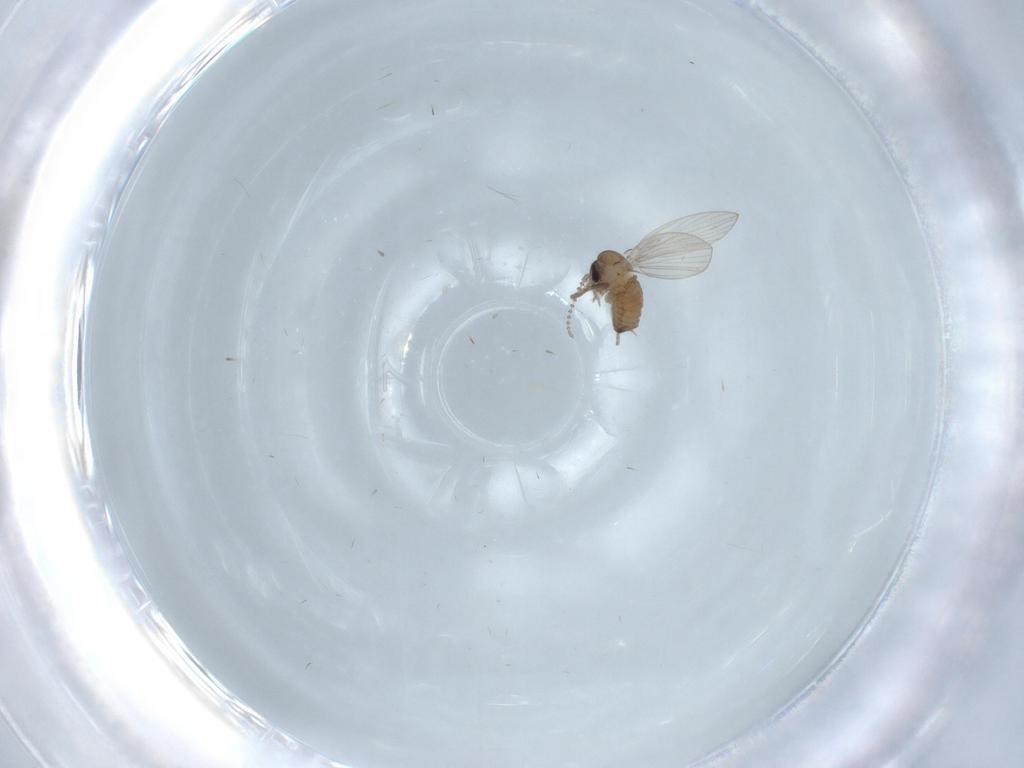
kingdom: Animalia
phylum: Arthropoda
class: Insecta
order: Diptera
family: Psychodidae
